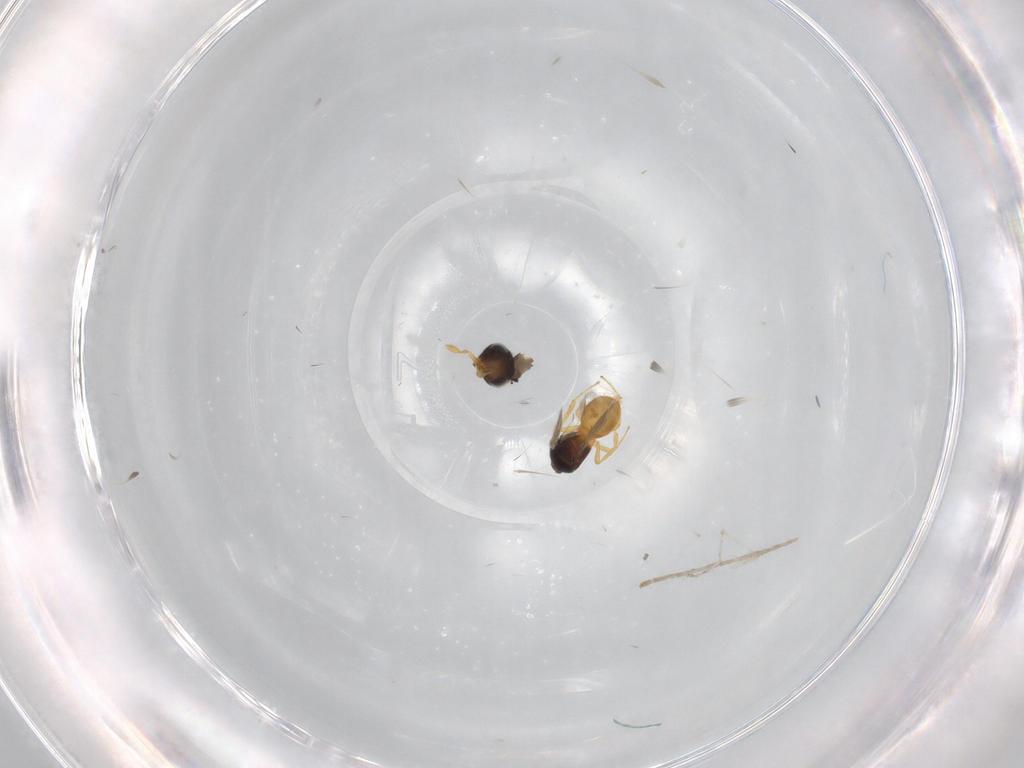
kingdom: Animalia
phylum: Arthropoda
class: Insecta
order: Hymenoptera
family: Scelionidae
